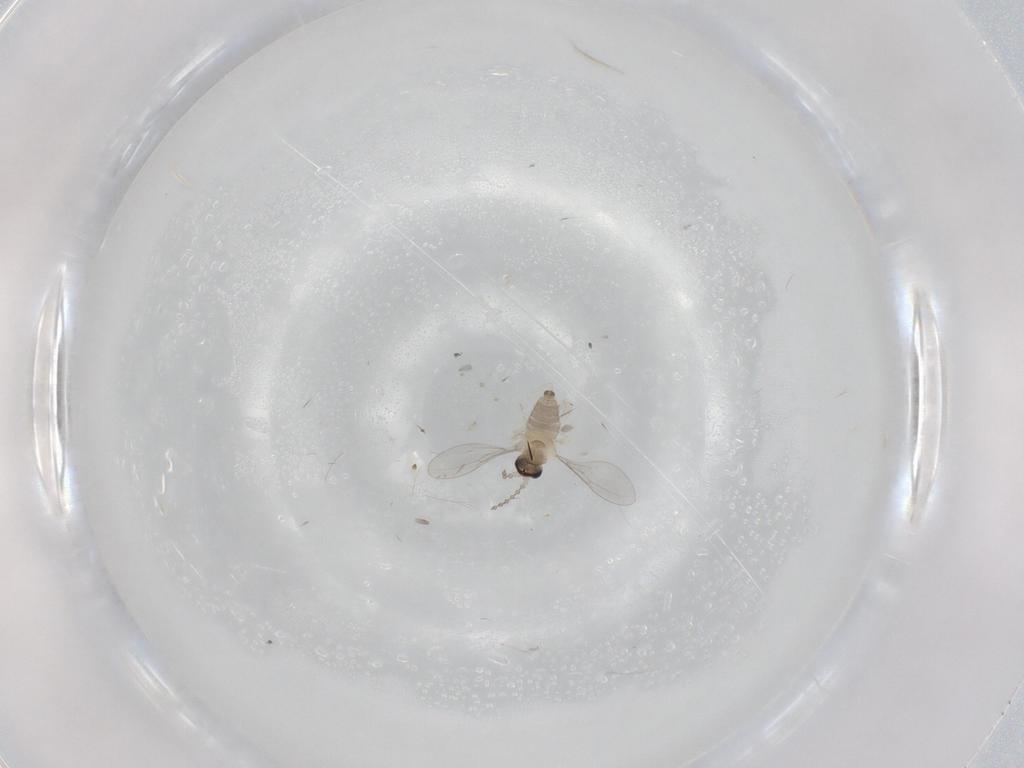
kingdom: Animalia
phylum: Arthropoda
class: Insecta
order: Diptera
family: Cecidomyiidae
